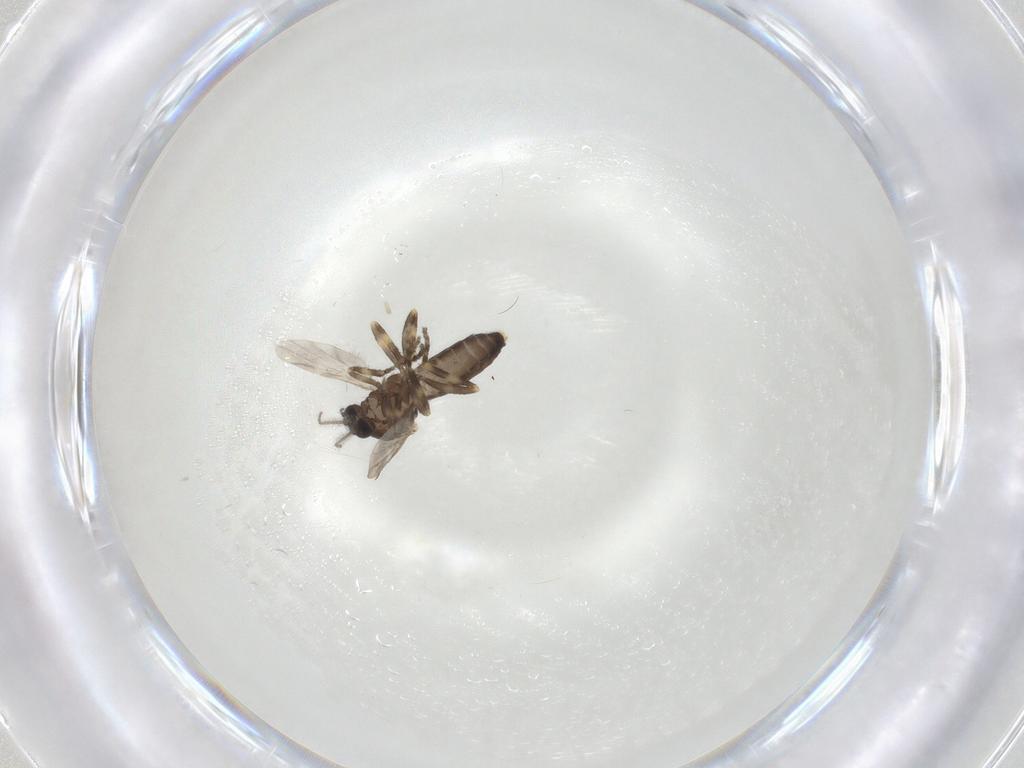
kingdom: Animalia
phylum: Arthropoda
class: Insecta
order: Diptera
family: Ceratopogonidae
